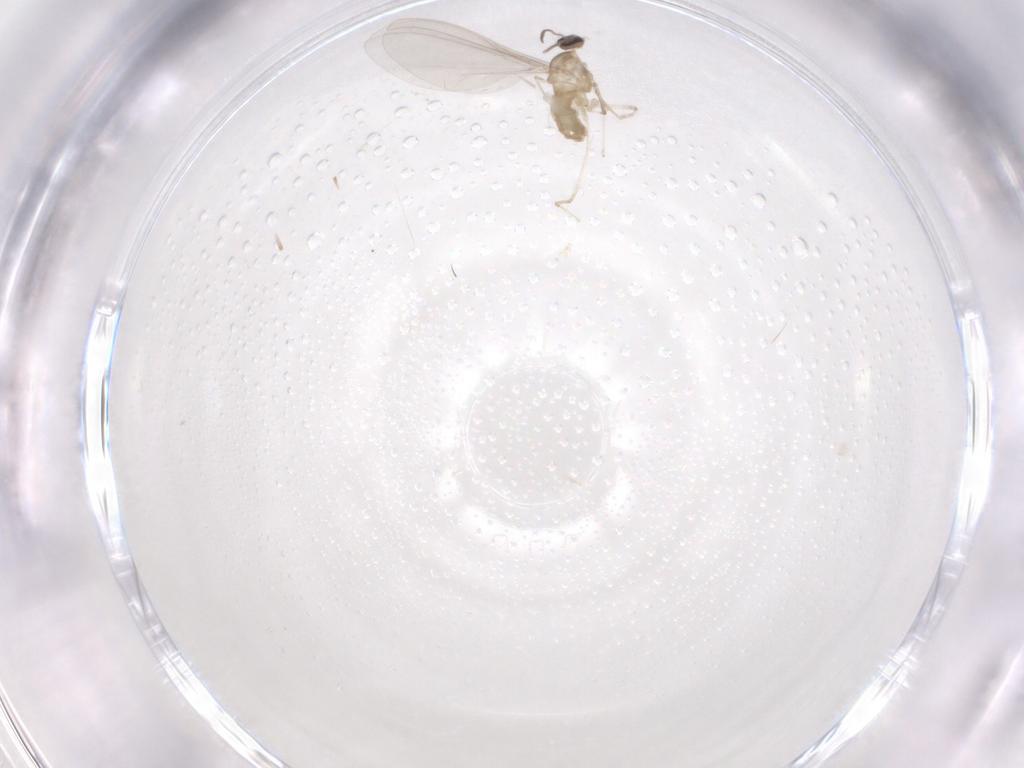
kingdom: Animalia
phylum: Arthropoda
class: Insecta
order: Diptera
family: Cecidomyiidae
